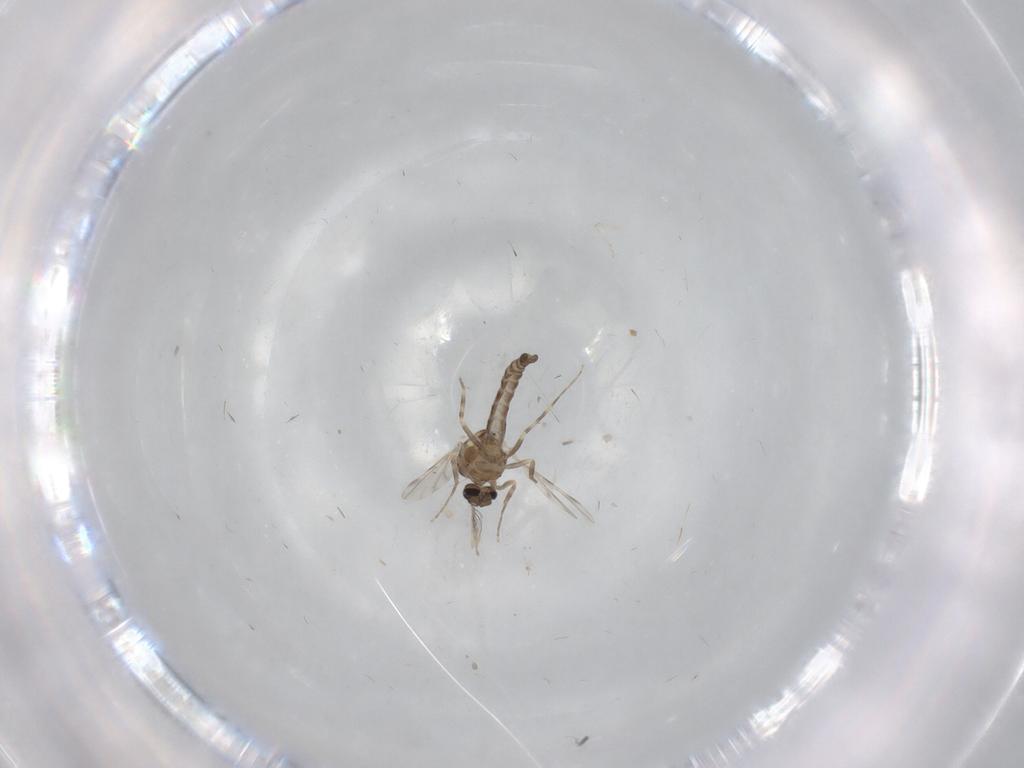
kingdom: Animalia
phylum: Arthropoda
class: Insecta
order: Diptera
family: Ceratopogonidae
